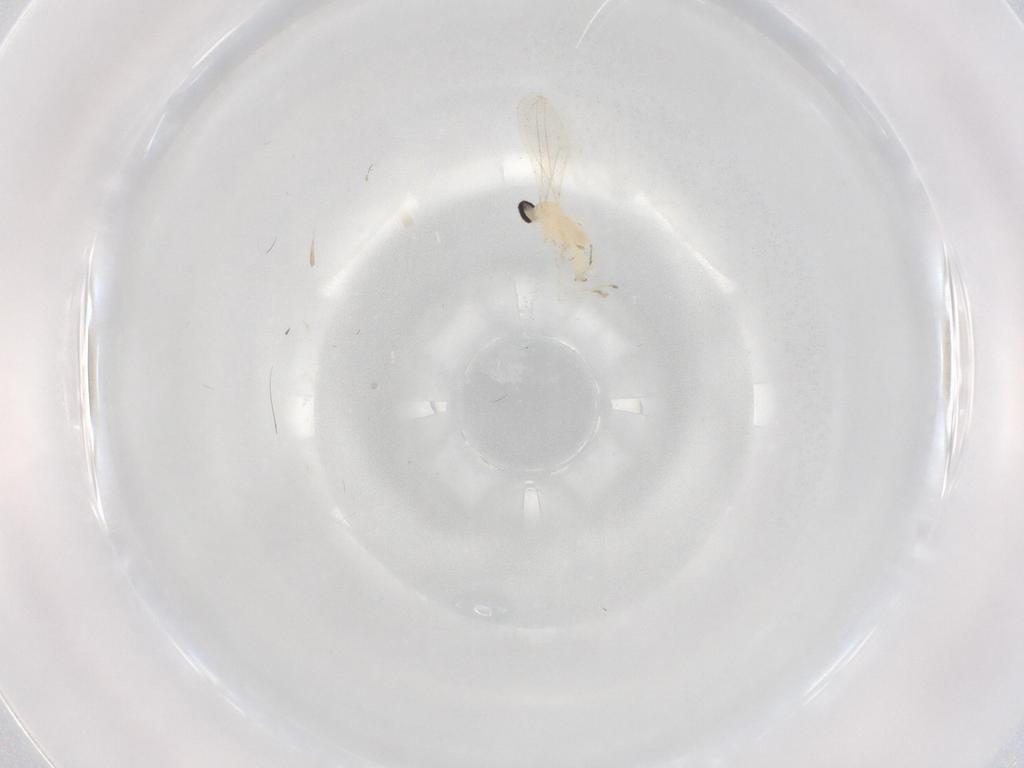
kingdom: Animalia
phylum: Arthropoda
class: Insecta
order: Diptera
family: Cecidomyiidae
